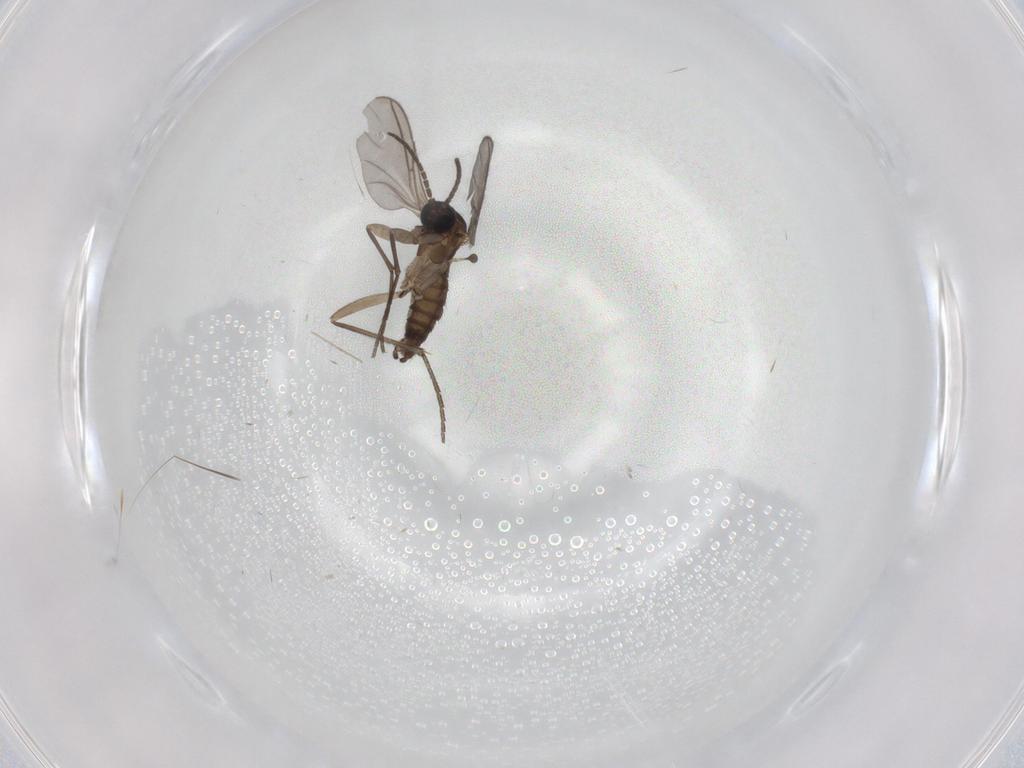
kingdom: Animalia
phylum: Arthropoda
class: Insecta
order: Diptera
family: Sciaridae
